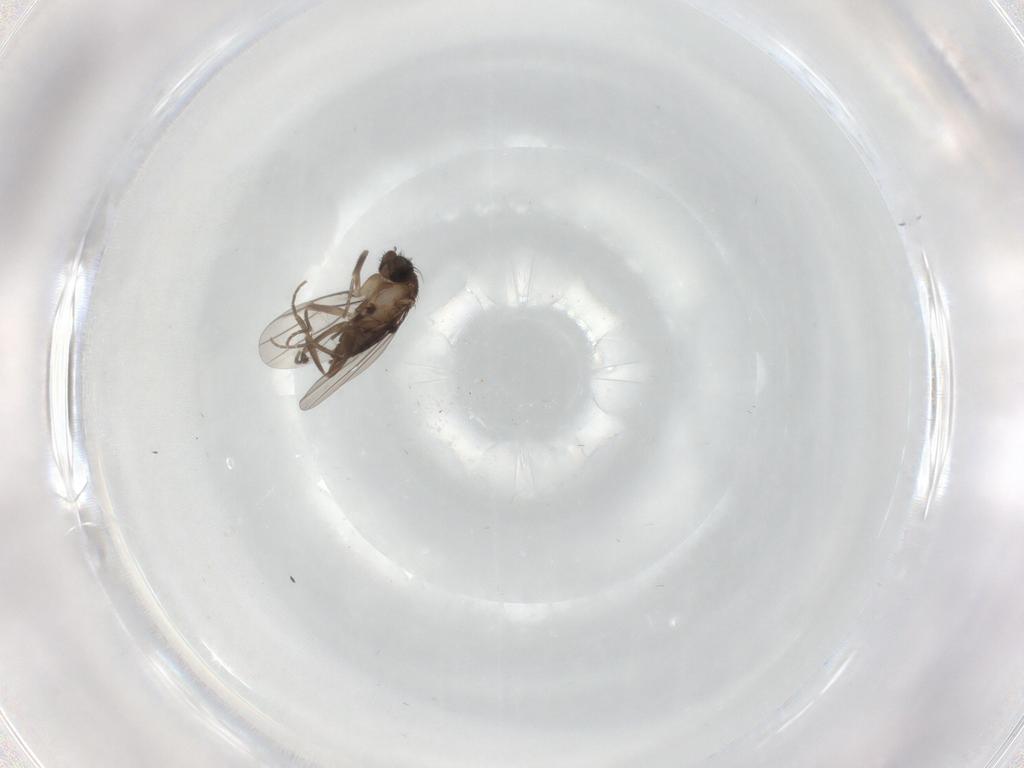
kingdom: Animalia
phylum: Arthropoda
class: Insecta
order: Diptera
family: Phoridae
